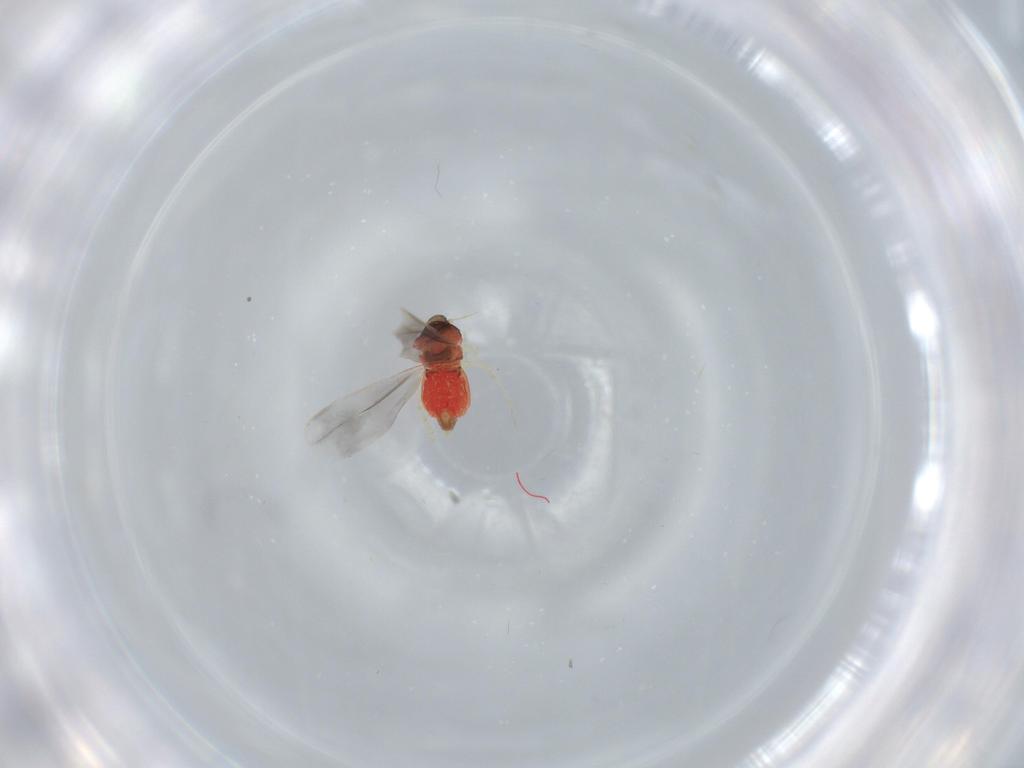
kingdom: Animalia
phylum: Arthropoda
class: Insecta
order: Hemiptera
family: Aleyrodidae
